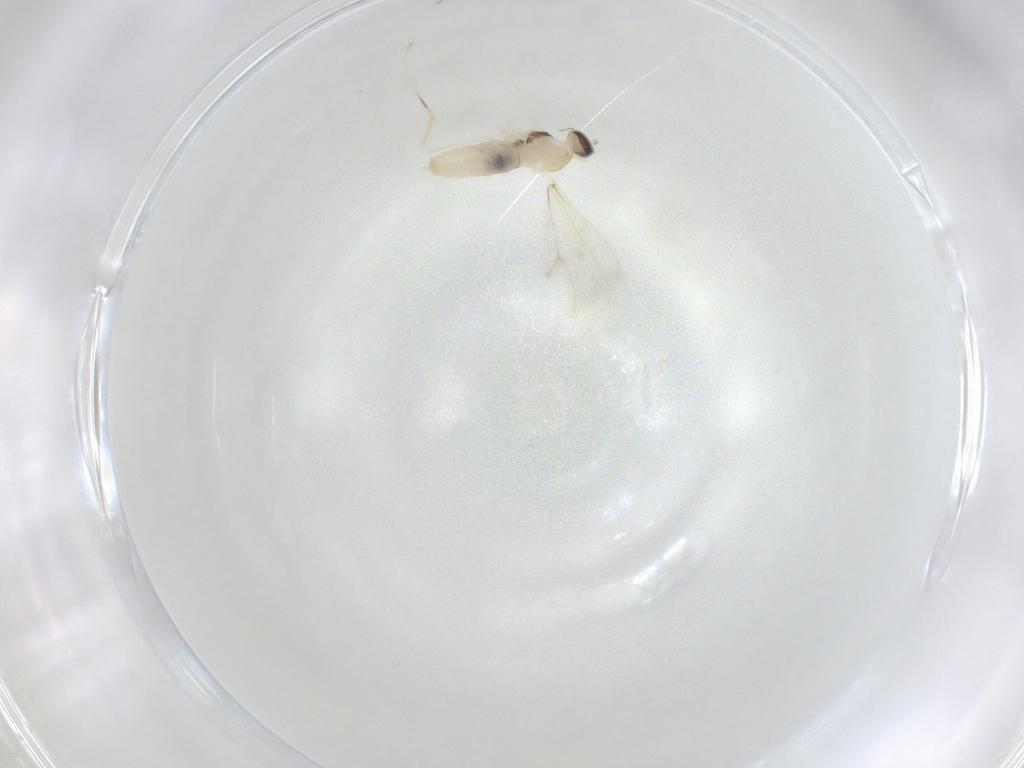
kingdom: Animalia
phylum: Arthropoda
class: Insecta
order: Diptera
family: Cecidomyiidae
